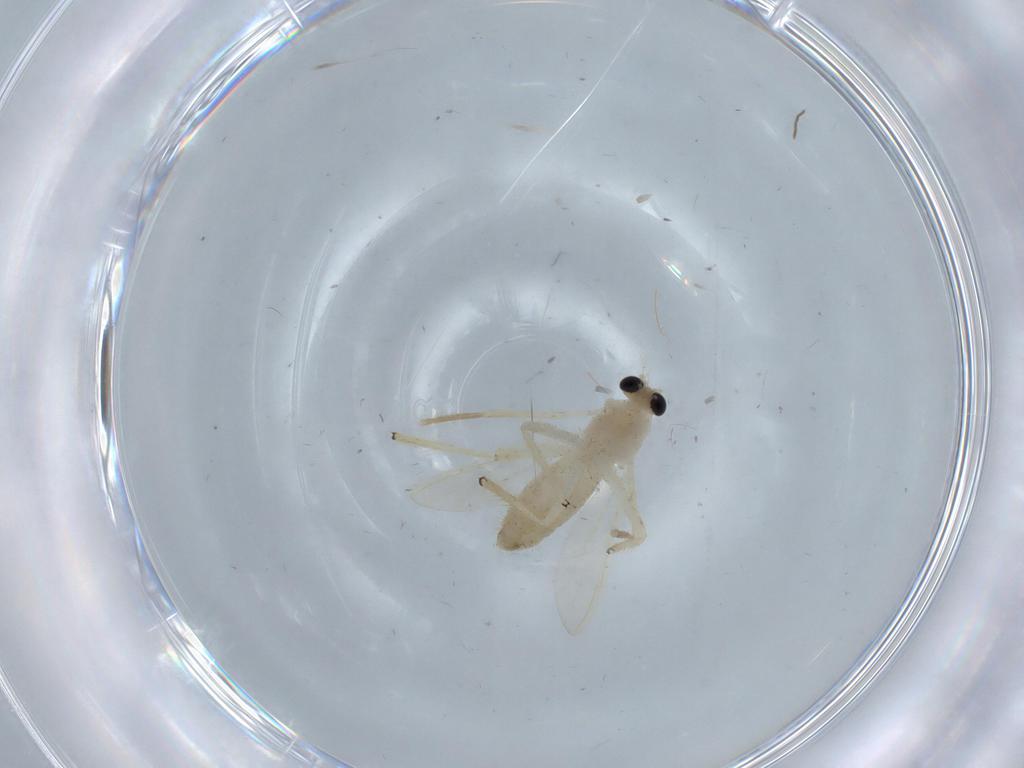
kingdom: Animalia
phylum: Arthropoda
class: Insecta
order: Diptera
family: Chironomidae
